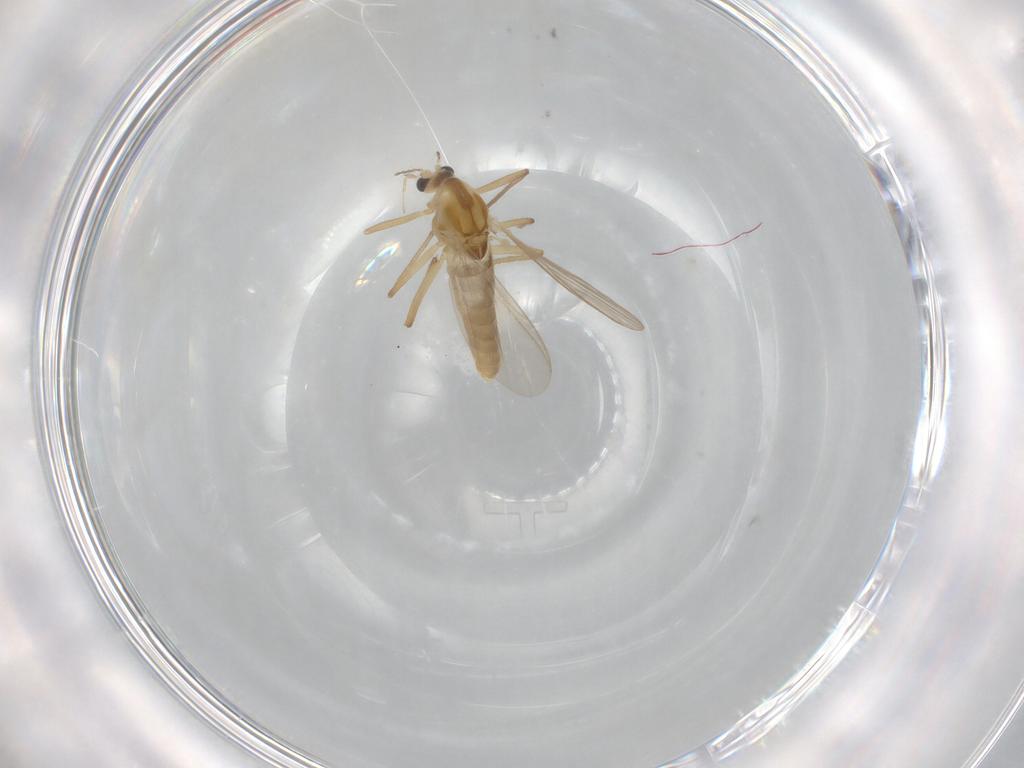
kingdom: Animalia
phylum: Arthropoda
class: Insecta
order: Diptera
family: Chironomidae
